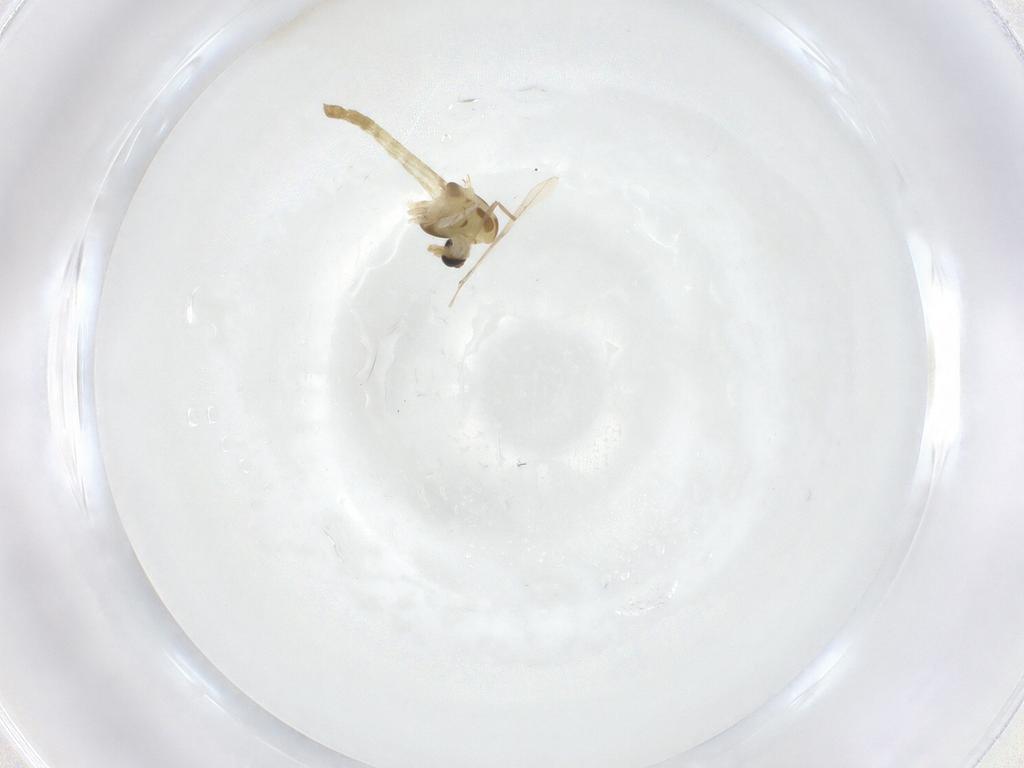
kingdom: Animalia
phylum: Arthropoda
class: Insecta
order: Diptera
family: Chironomidae
